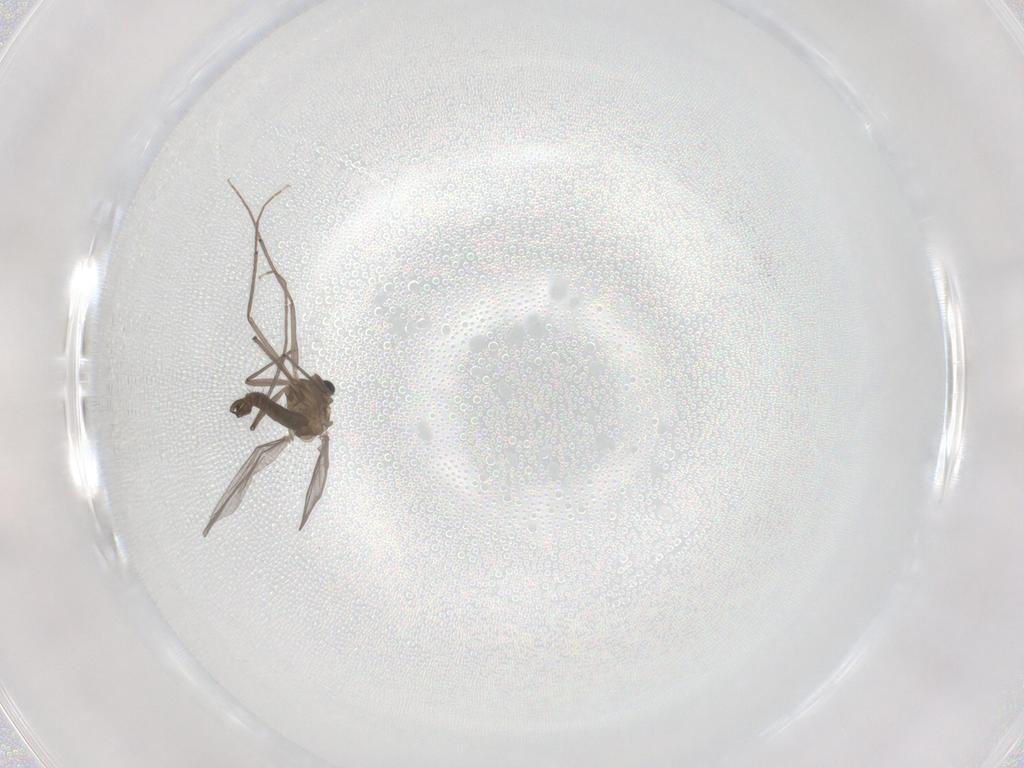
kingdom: Animalia
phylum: Arthropoda
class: Insecta
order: Diptera
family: Chironomidae
